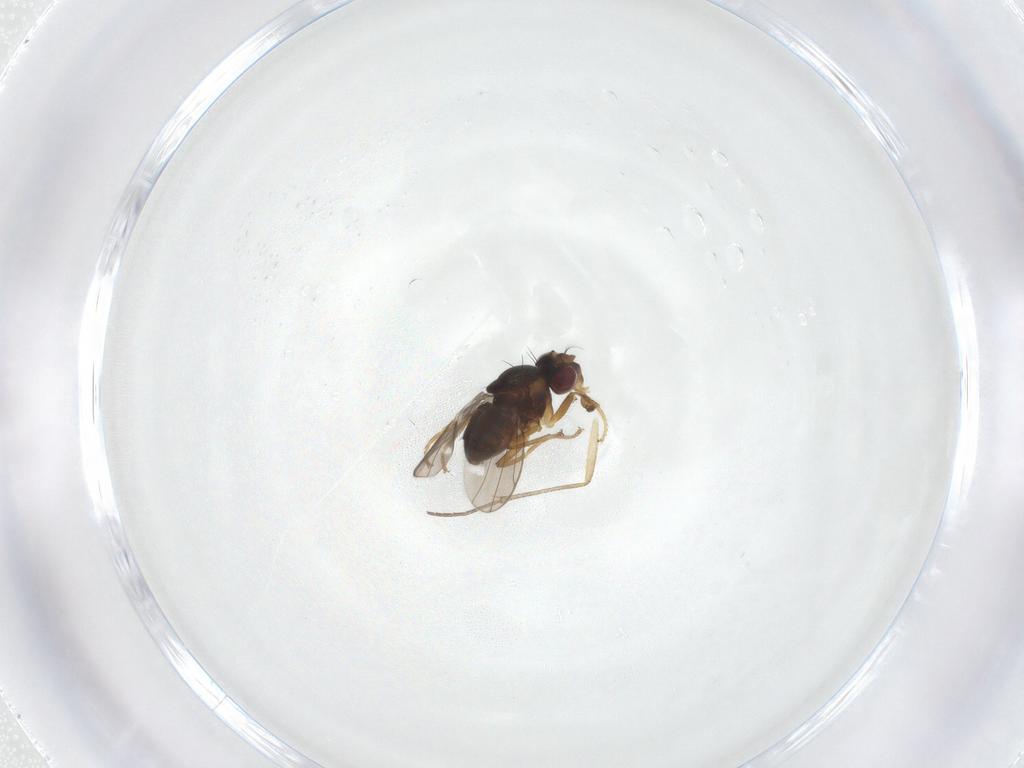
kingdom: Animalia
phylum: Arthropoda
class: Insecta
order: Diptera
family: Ephydridae
